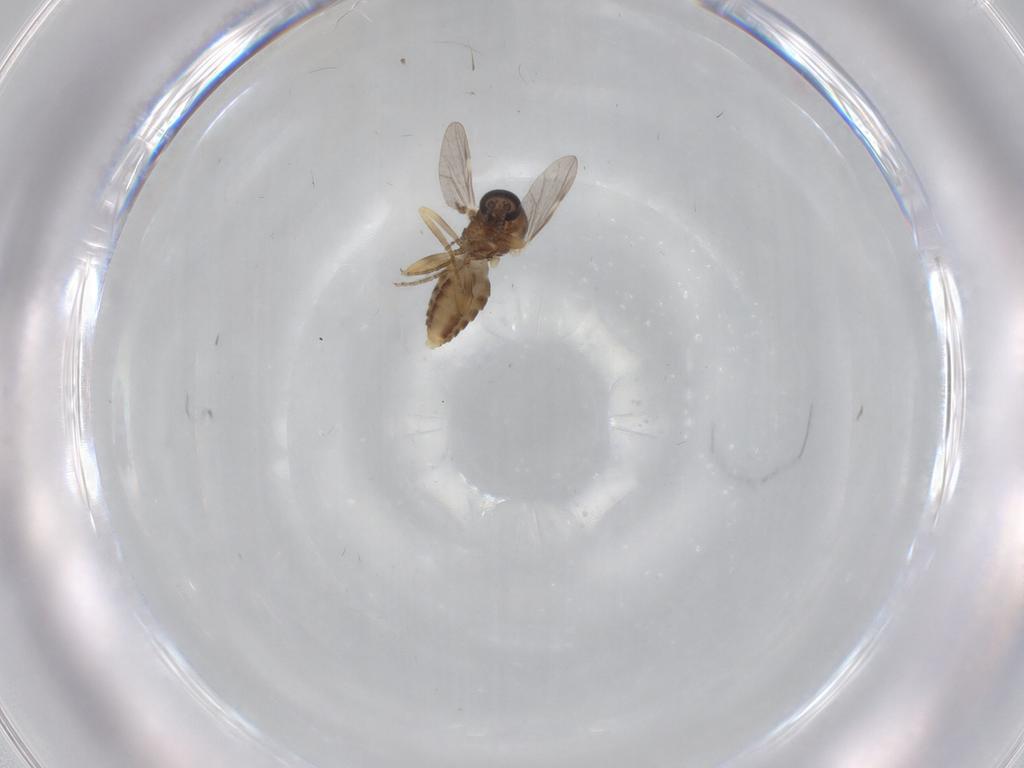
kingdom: Animalia
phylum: Arthropoda
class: Insecta
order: Diptera
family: Ceratopogonidae
